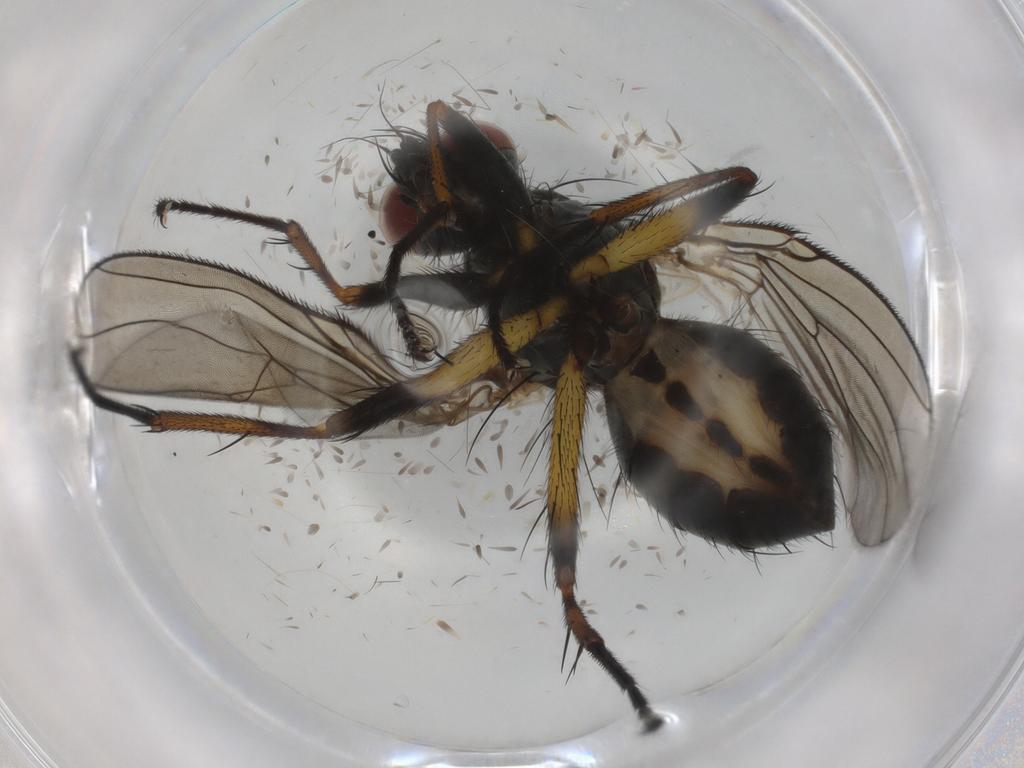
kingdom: Animalia
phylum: Arthropoda
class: Insecta
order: Diptera
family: Muscidae
